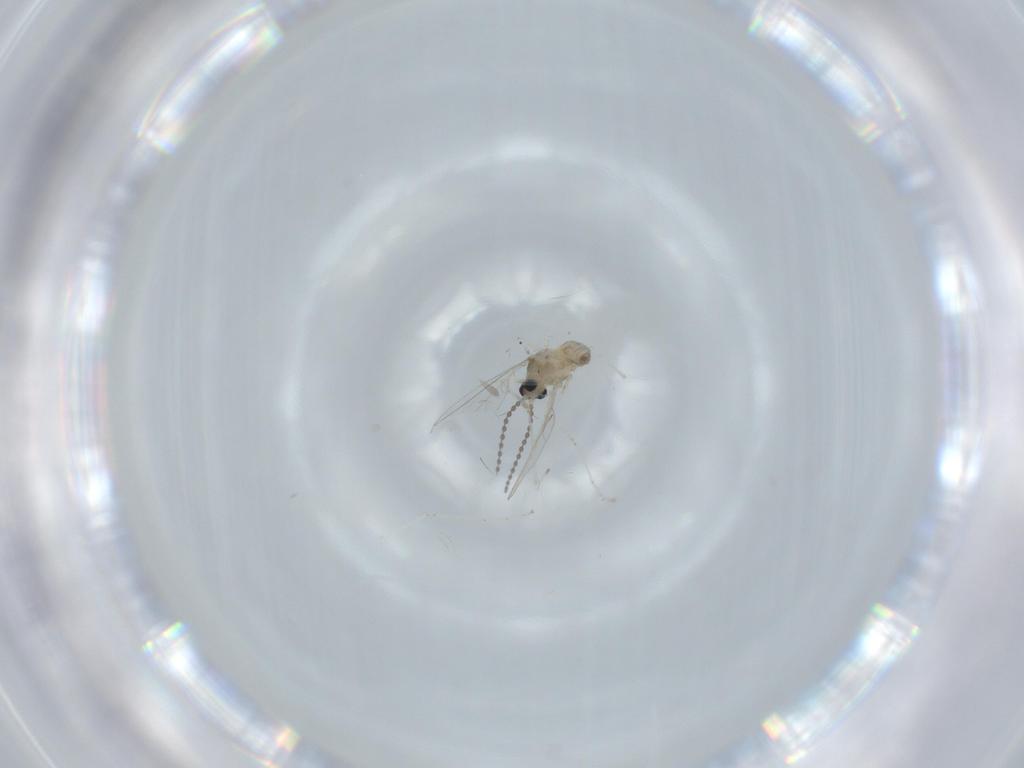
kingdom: Animalia
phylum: Arthropoda
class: Insecta
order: Diptera
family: Cecidomyiidae
